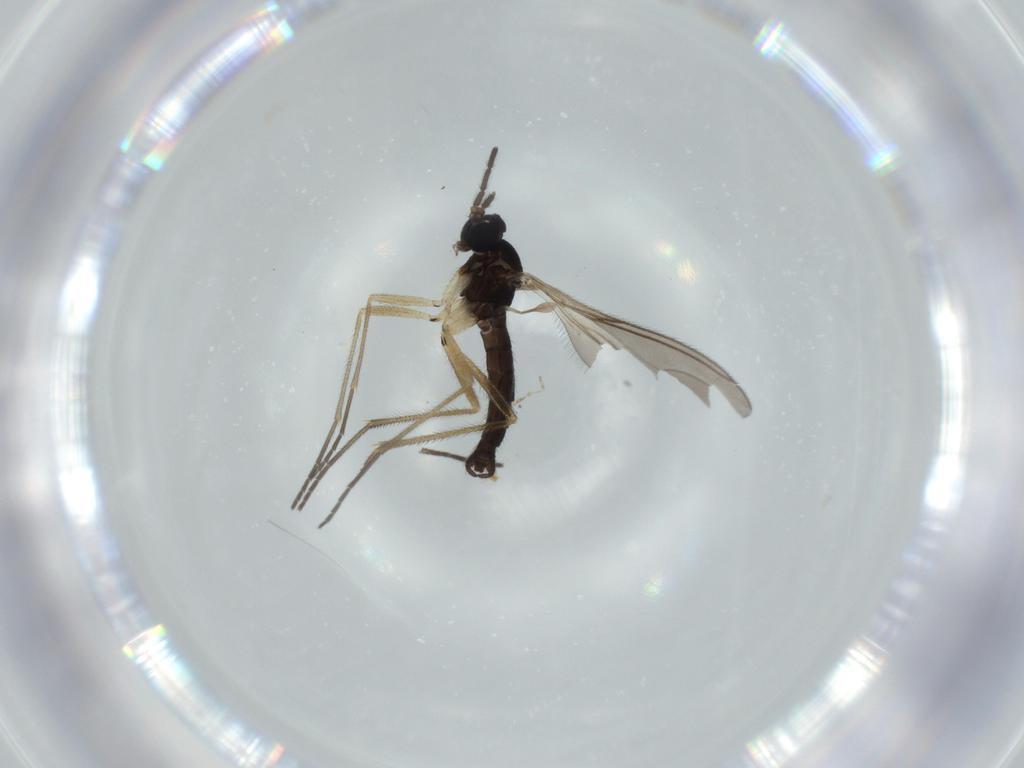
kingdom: Animalia
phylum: Arthropoda
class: Insecta
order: Diptera
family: Sciaridae
